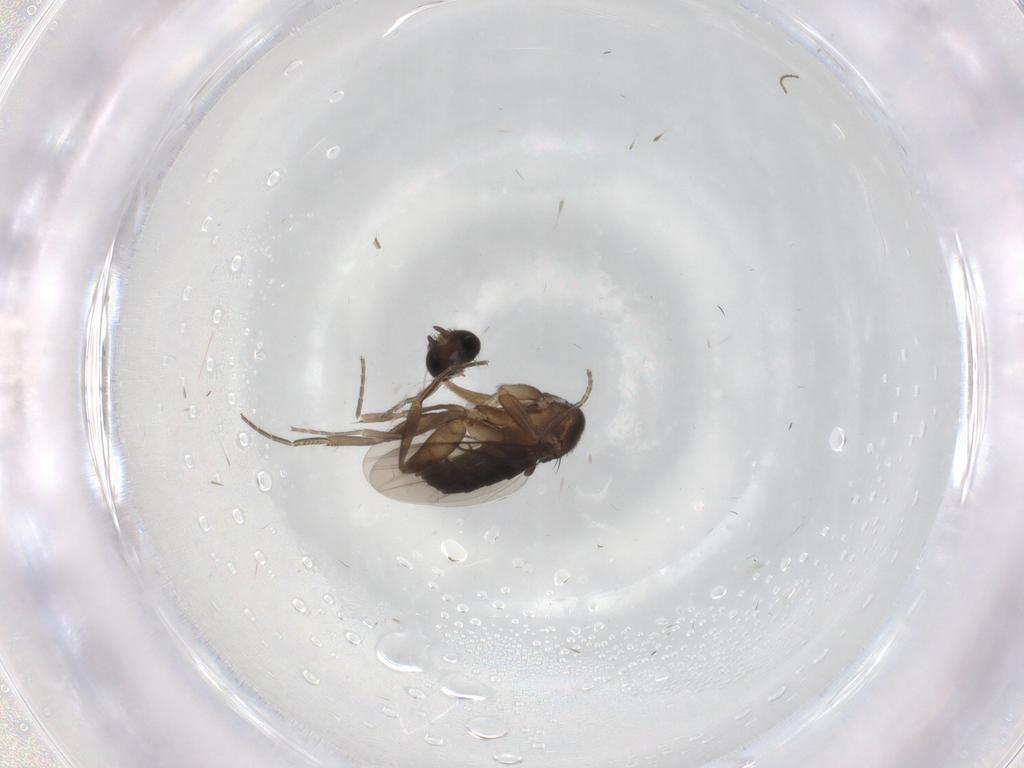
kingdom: Animalia
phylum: Arthropoda
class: Insecta
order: Diptera
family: Phoridae
